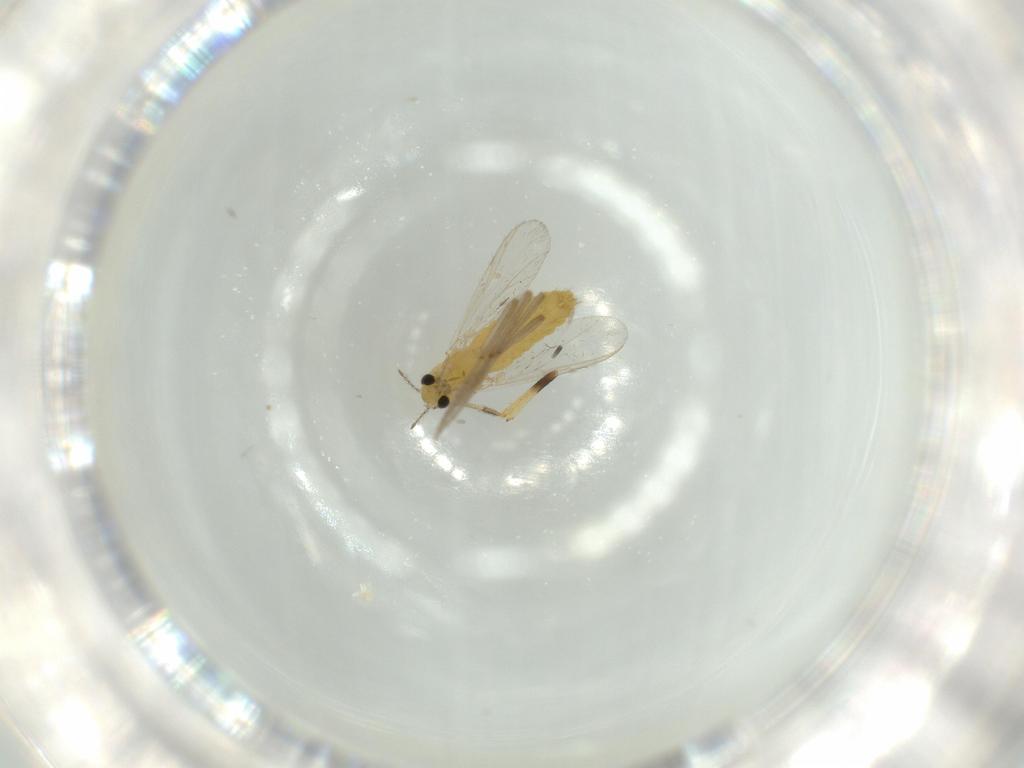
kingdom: Animalia
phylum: Arthropoda
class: Insecta
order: Diptera
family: Chironomidae
